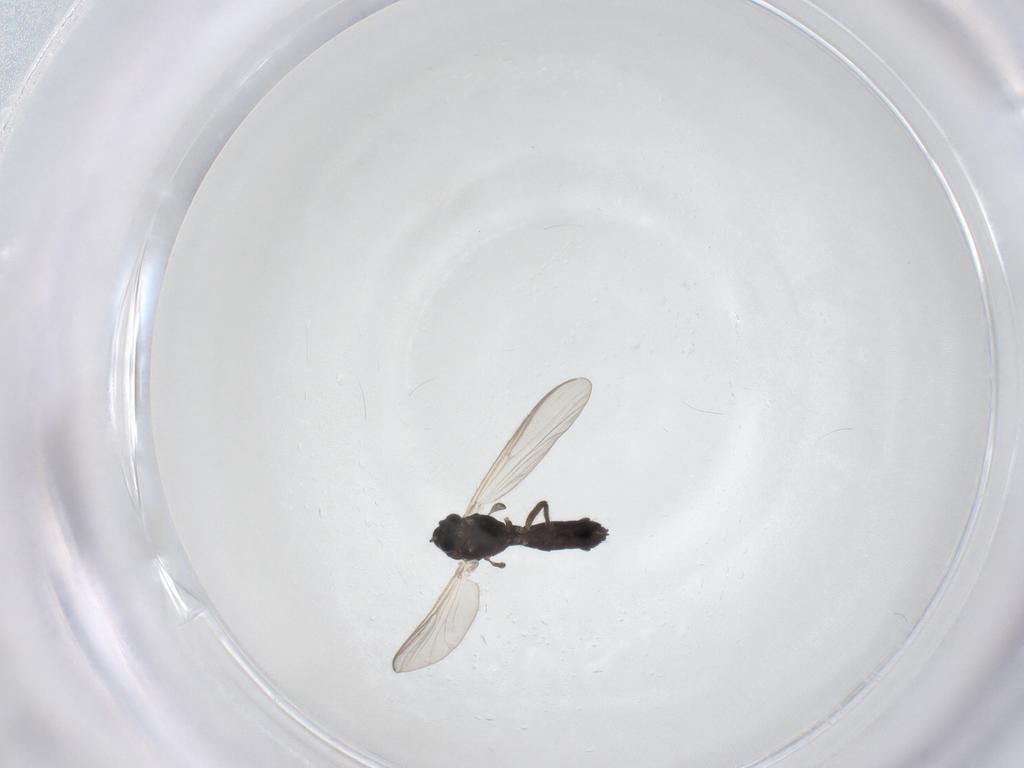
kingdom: Animalia
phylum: Arthropoda
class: Insecta
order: Diptera
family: Chironomidae
